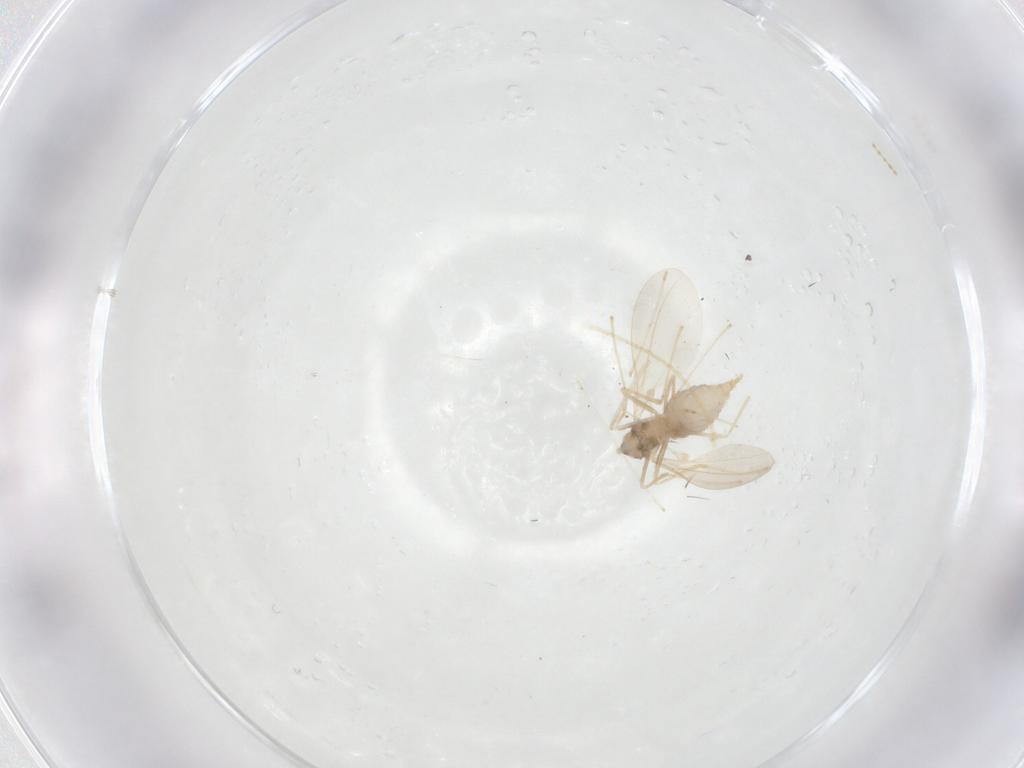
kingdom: Animalia
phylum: Arthropoda
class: Insecta
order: Diptera
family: Cecidomyiidae
